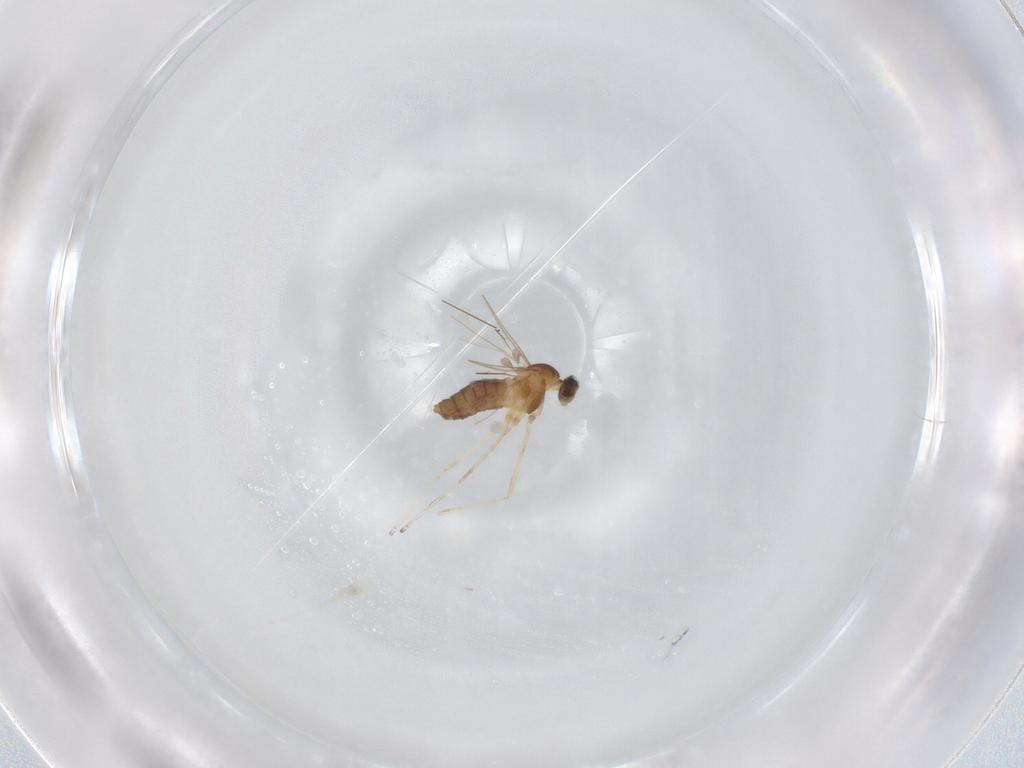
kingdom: Animalia
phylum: Arthropoda
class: Insecta
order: Diptera
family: Cecidomyiidae
